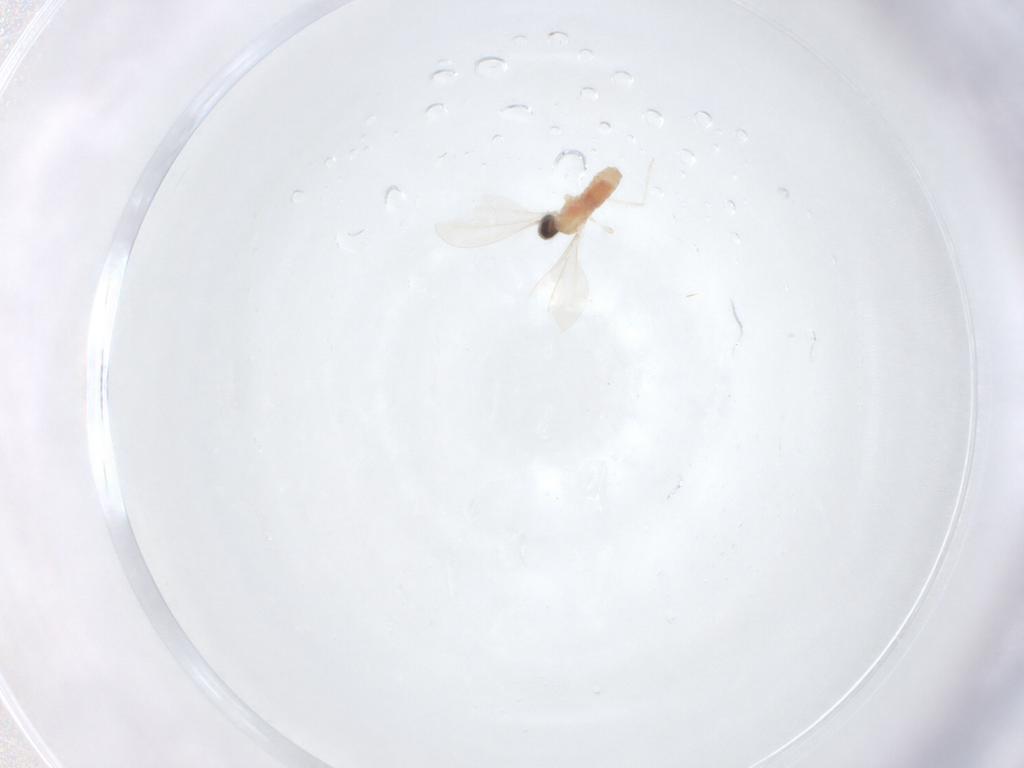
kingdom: Animalia
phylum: Arthropoda
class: Insecta
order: Diptera
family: Cecidomyiidae
